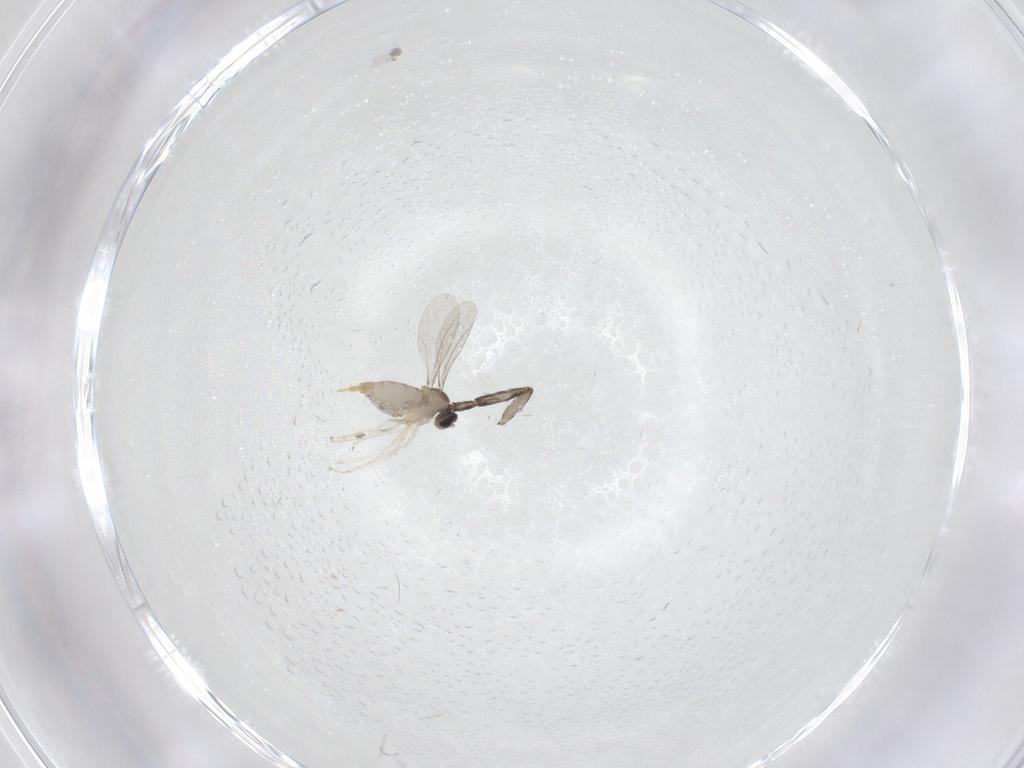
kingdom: Animalia
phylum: Arthropoda
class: Insecta
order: Diptera
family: Psychodidae
